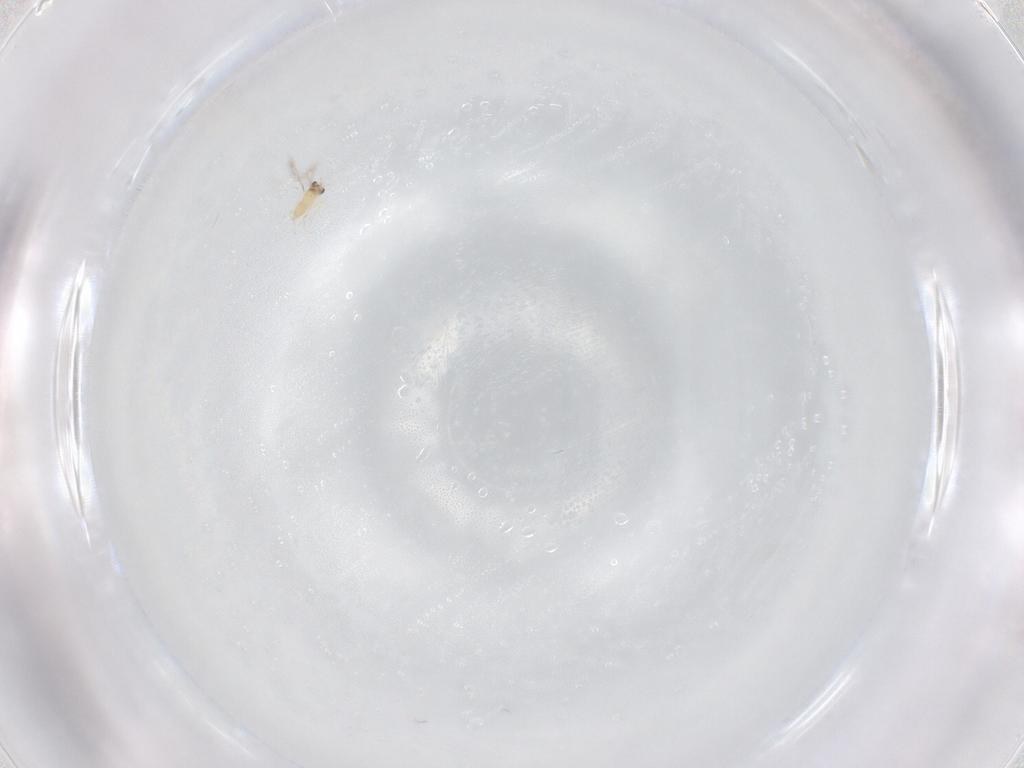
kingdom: Animalia
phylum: Arthropoda
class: Insecta
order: Hymenoptera
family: Mymaridae
